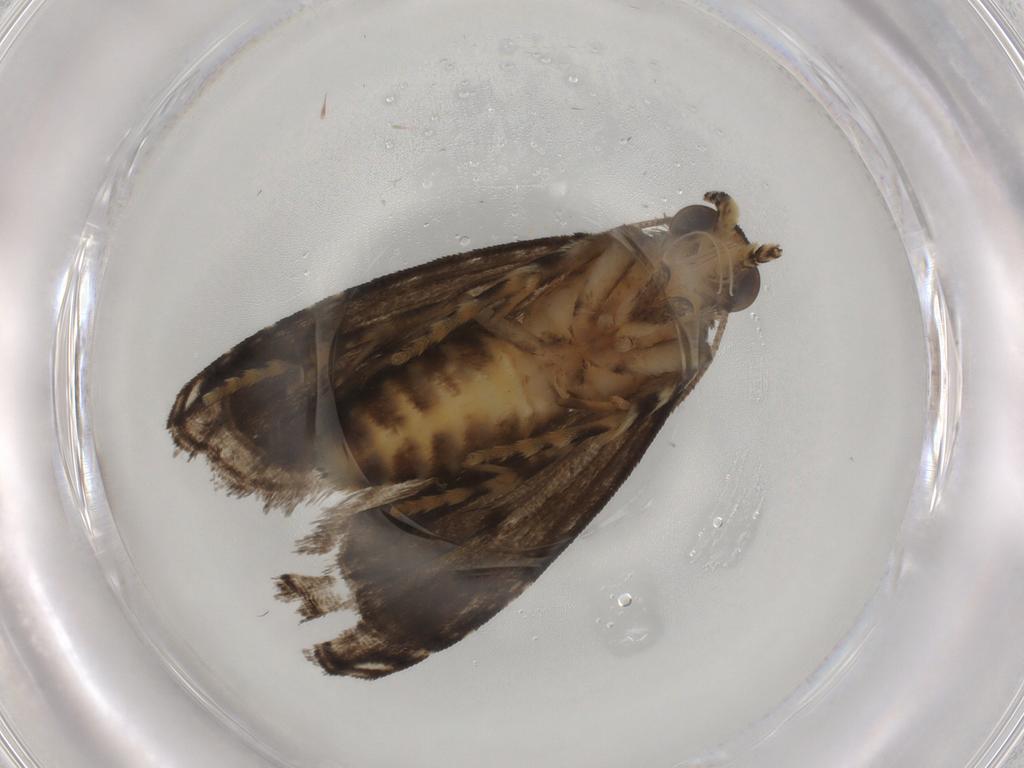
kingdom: Animalia
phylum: Arthropoda
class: Insecta
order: Lepidoptera
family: Immidae
